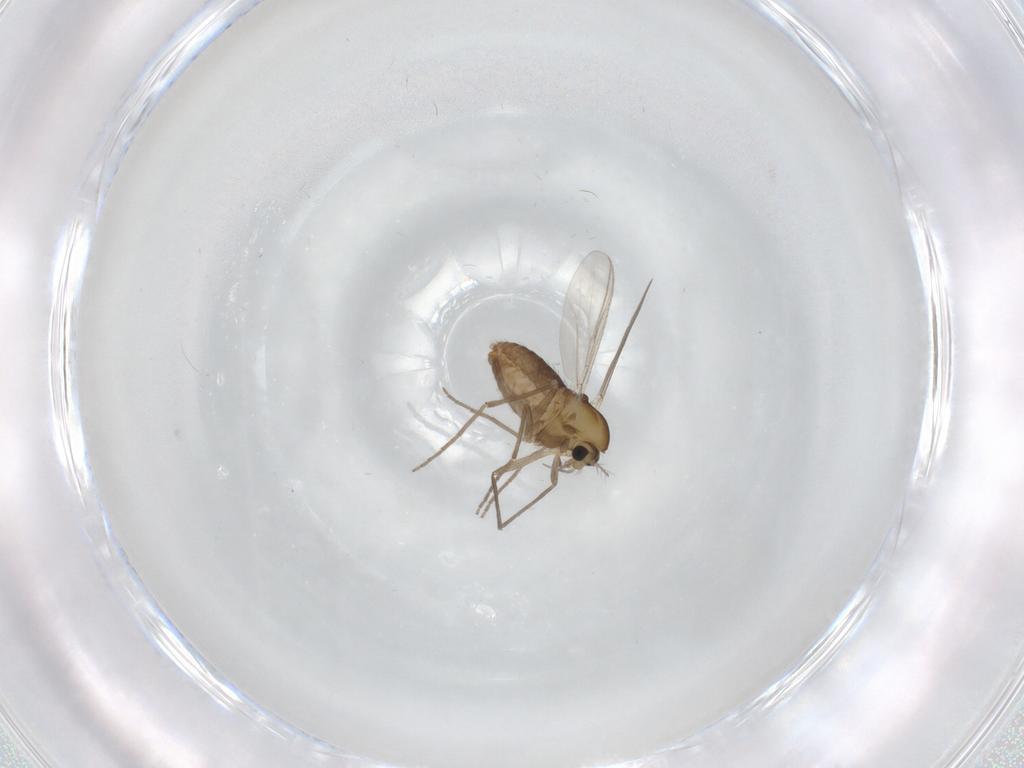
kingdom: Animalia
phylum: Arthropoda
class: Insecta
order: Diptera
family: Chironomidae
